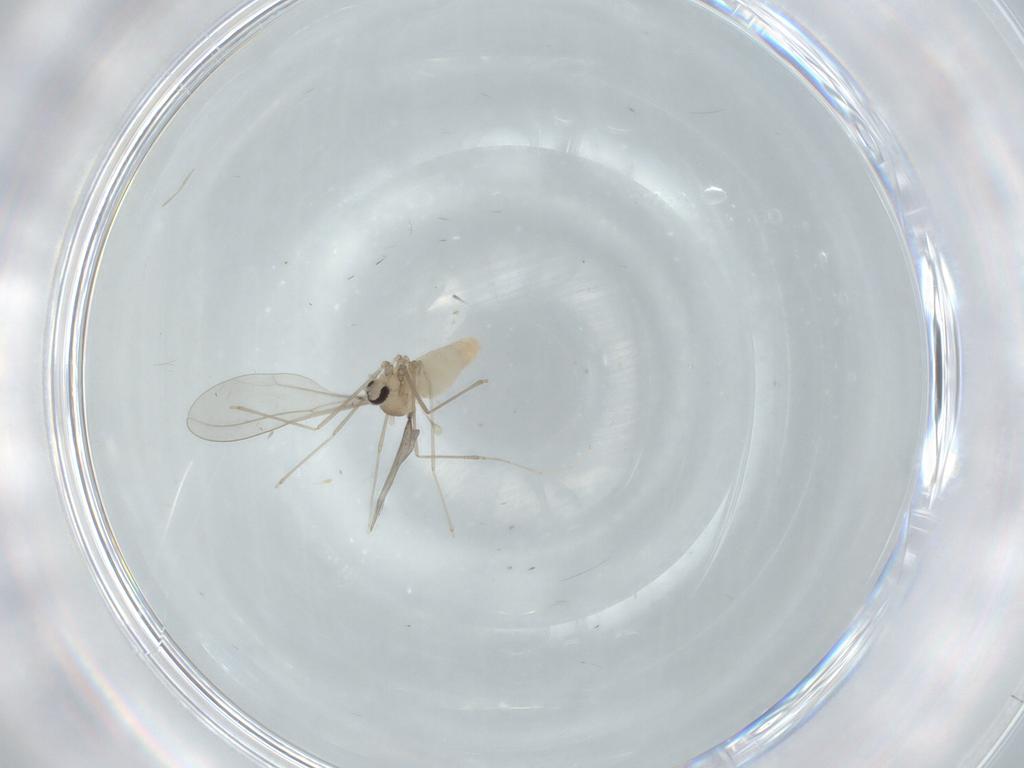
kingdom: Animalia
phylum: Arthropoda
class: Insecta
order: Diptera
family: Cecidomyiidae
